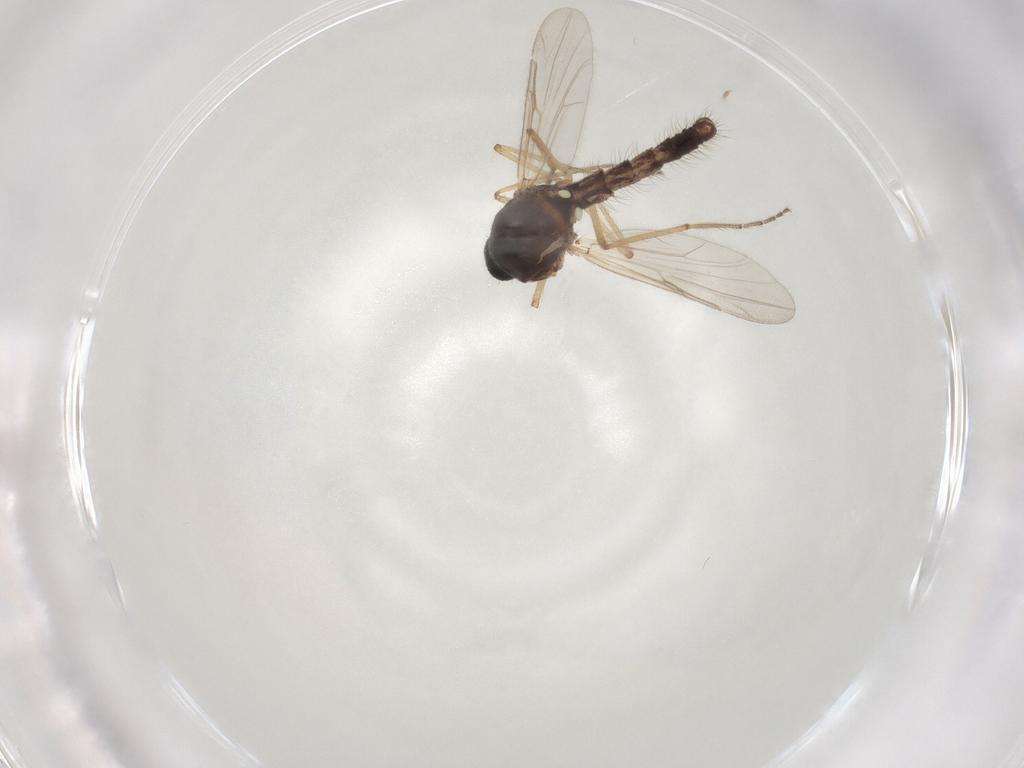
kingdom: Animalia
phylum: Arthropoda
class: Insecta
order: Diptera
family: Ceratopogonidae
